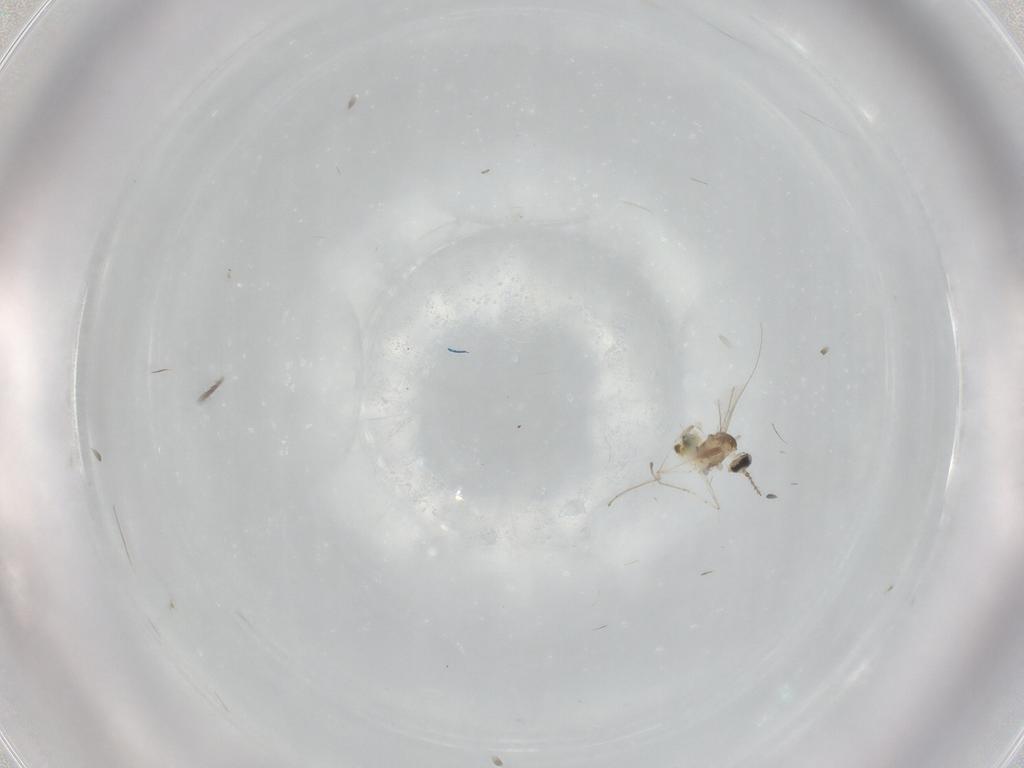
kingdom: Animalia
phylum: Arthropoda
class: Insecta
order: Diptera
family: Cecidomyiidae
